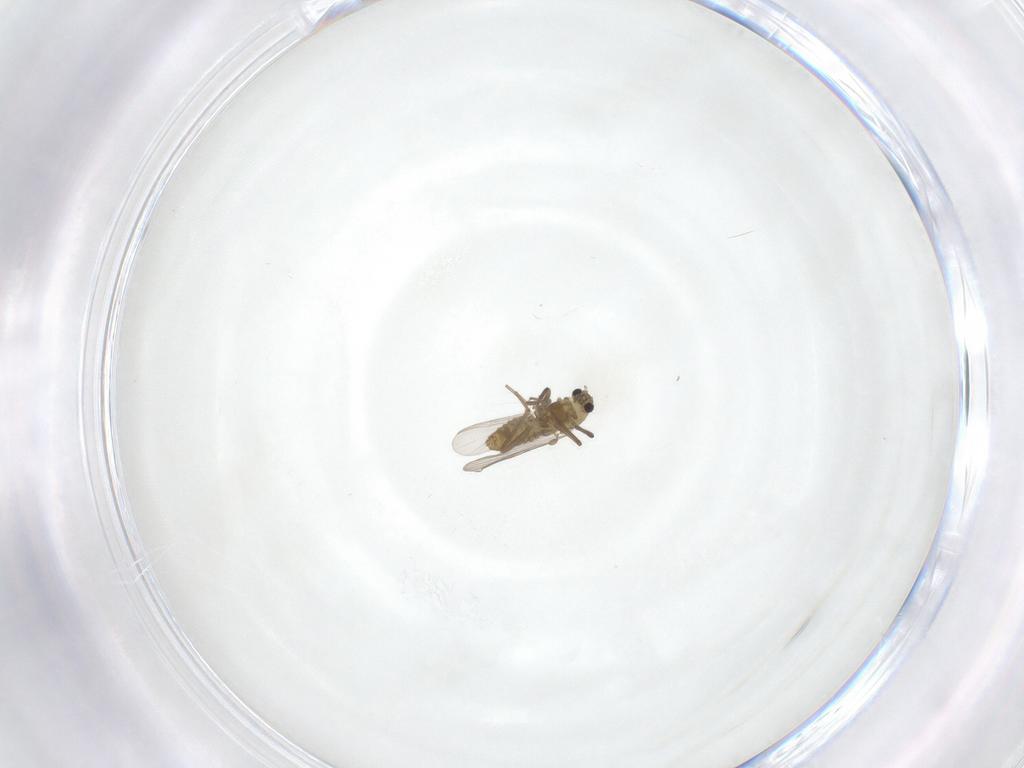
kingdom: Animalia
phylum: Arthropoda
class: Insecta
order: Diptera
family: Chironomidae
